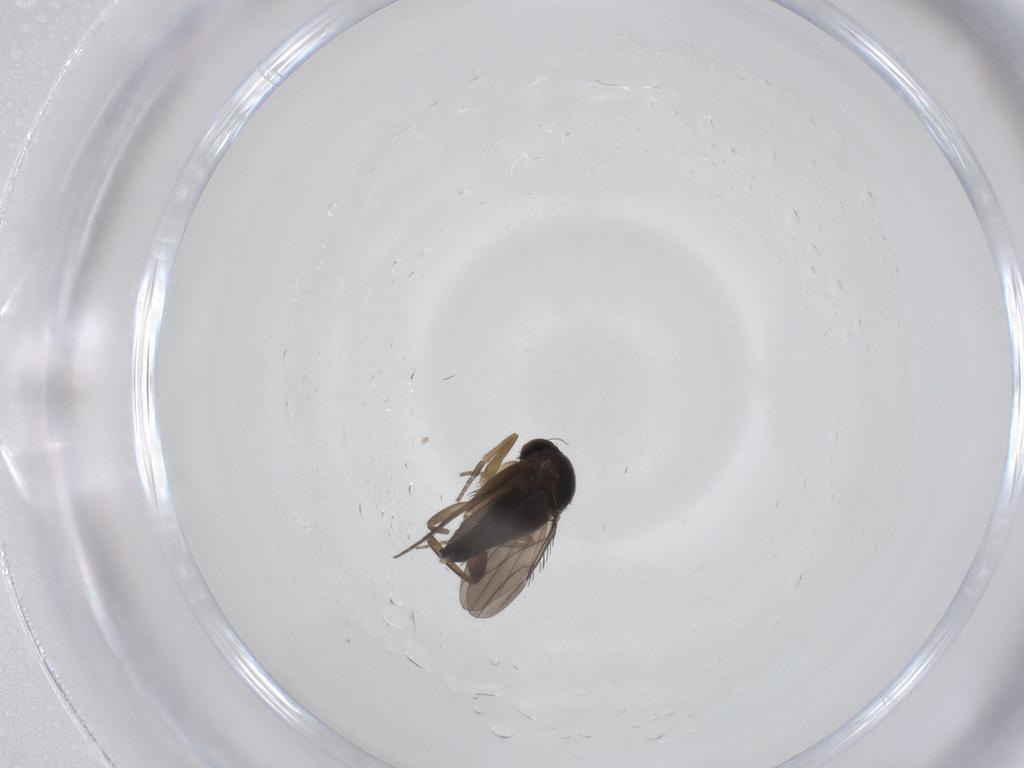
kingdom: Animalia
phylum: Arthropoda
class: Insecta
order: Diptera
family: Phoridae
